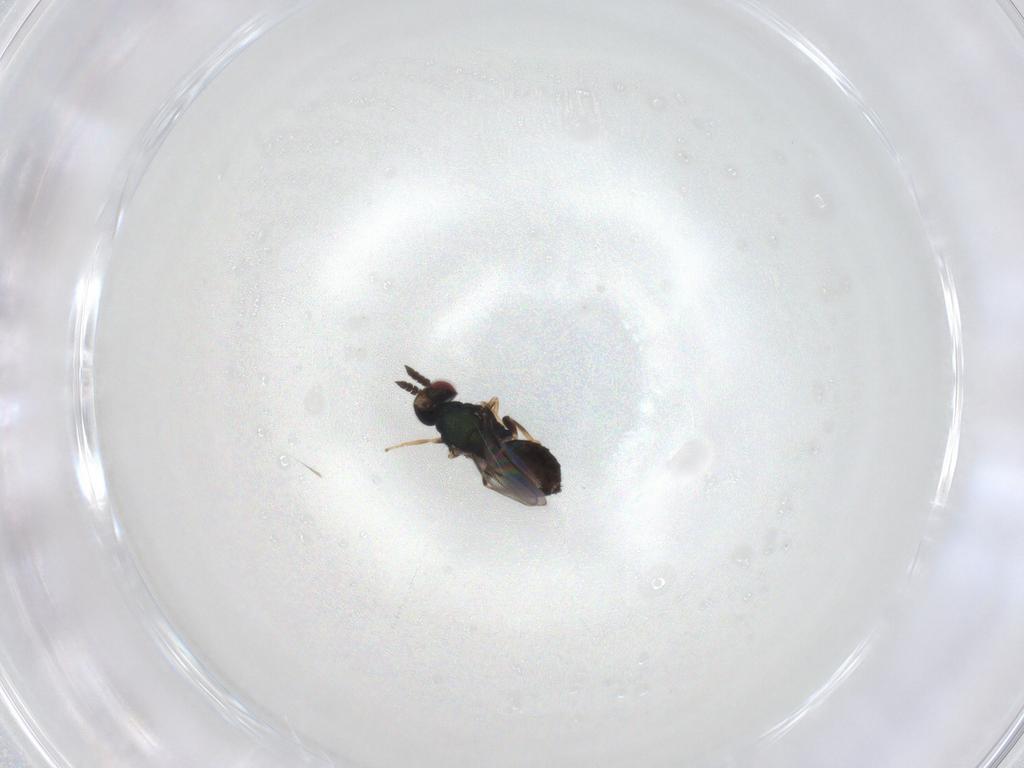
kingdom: Animalia
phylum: Arthropoda
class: Insecta
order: Hymenoptera
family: Eulophidae
